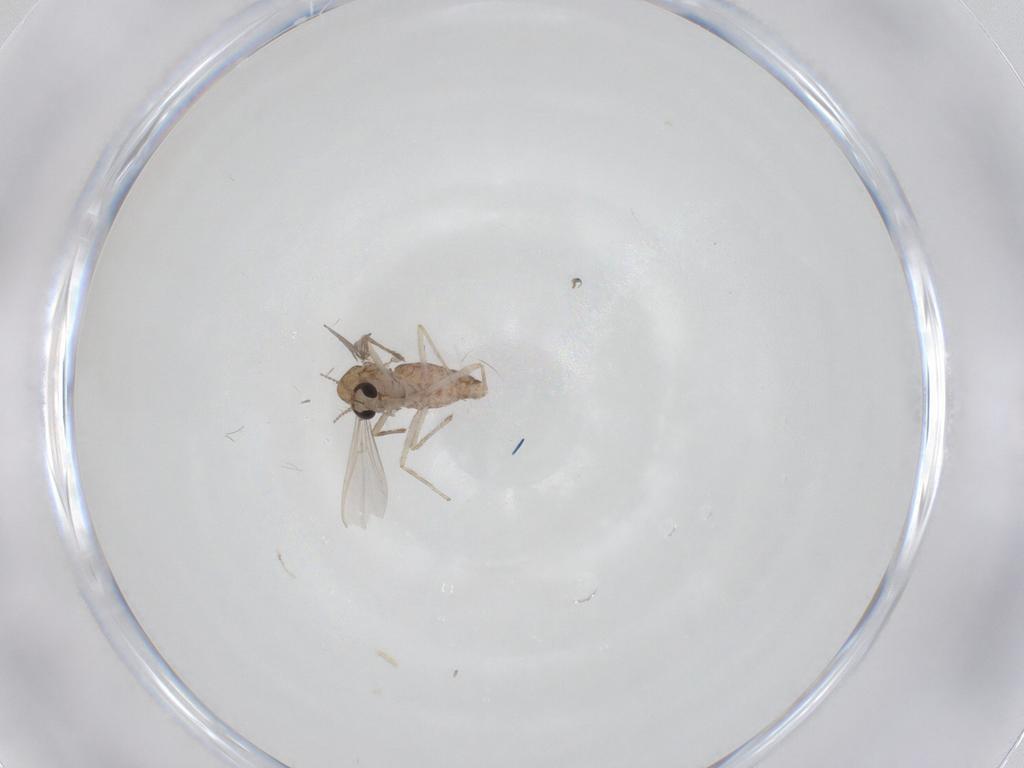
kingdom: Animalia
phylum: Arthropoda
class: Insecta
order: Diptera
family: Chironomidae
